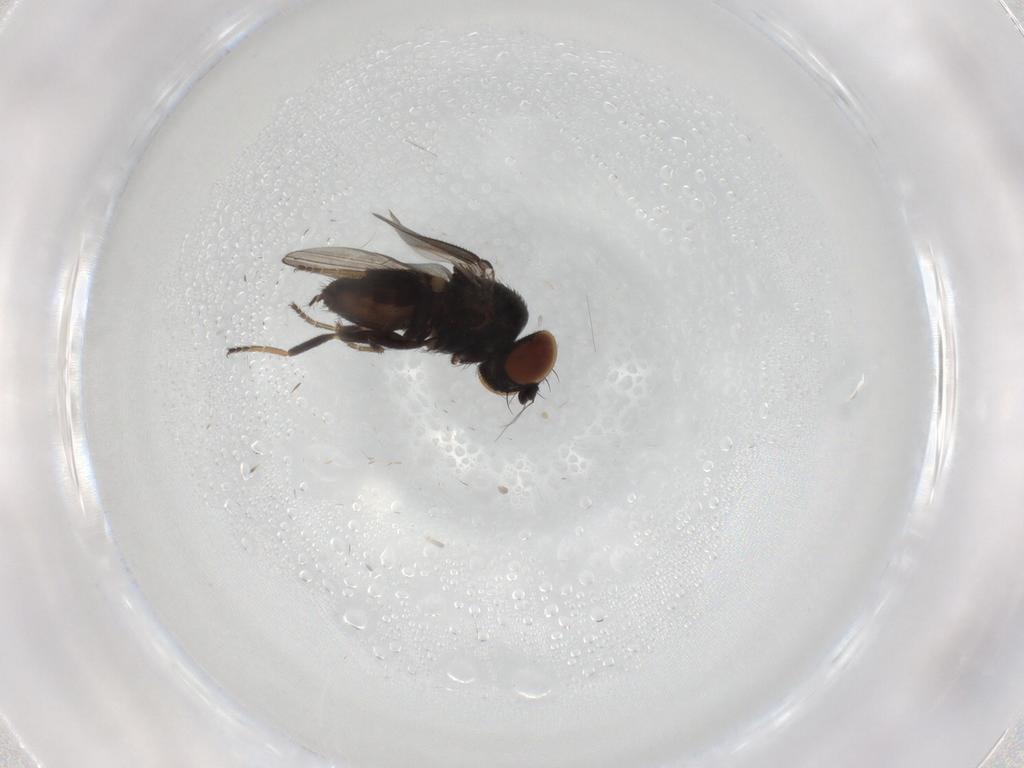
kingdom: Animalia
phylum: Arthropoda
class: Insecta
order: Diptera
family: Milichiidae
